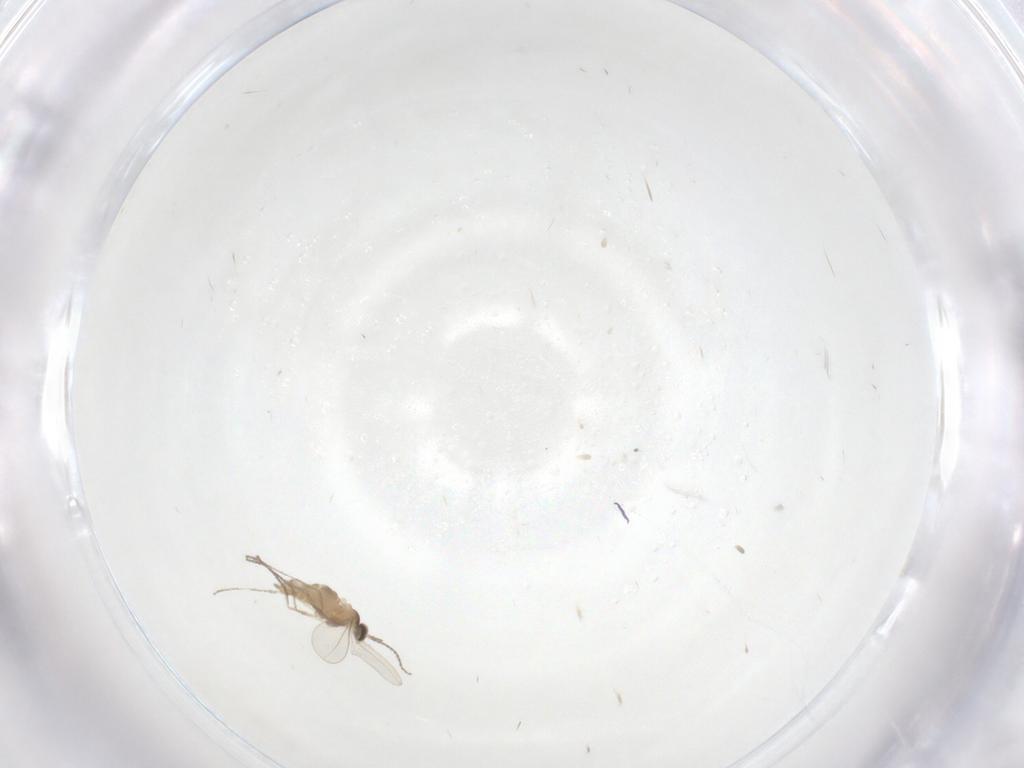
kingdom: Animalia
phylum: Arthropoda
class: Insecta
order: Diptera
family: Cecidomyiidae
